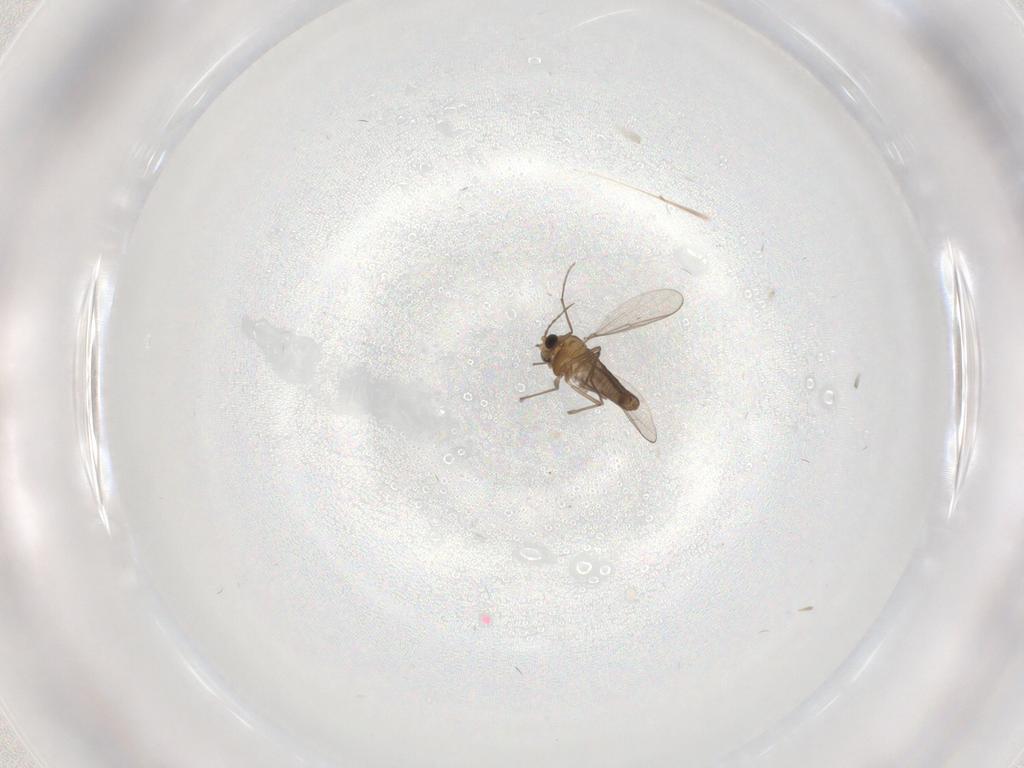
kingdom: Animalia
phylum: Arthropoda
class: Insecta
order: Diptera
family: Chironomidae
